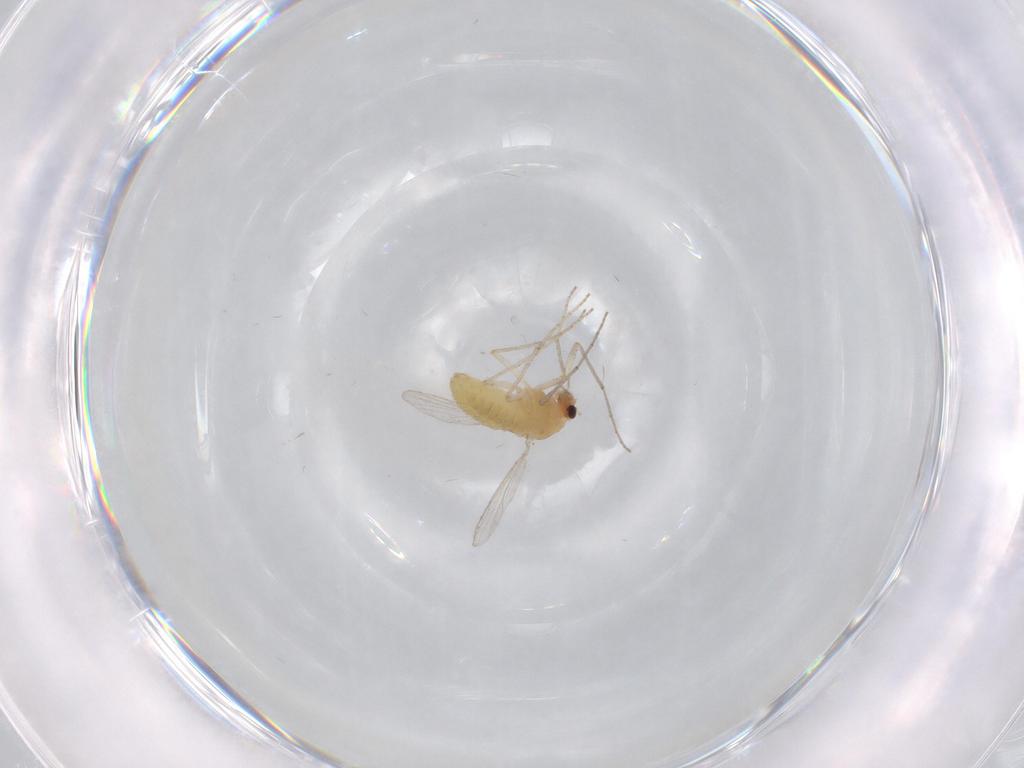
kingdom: Animalia
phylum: Arthropoda
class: Insecta
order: Diptera
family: Chironomidae
